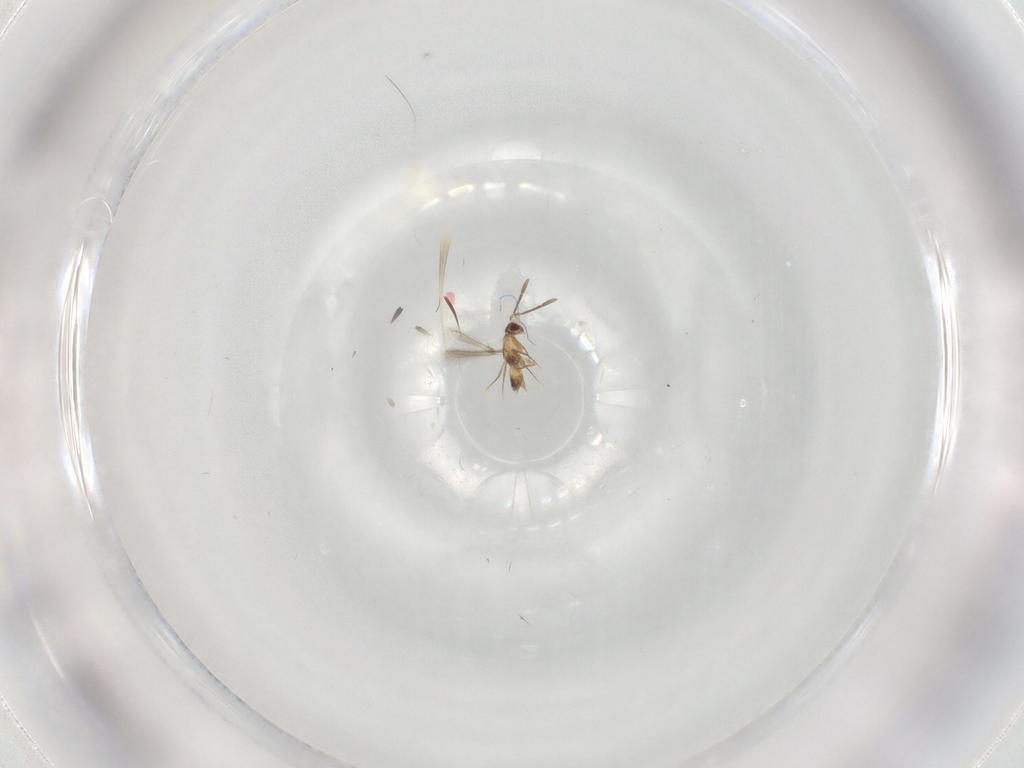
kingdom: Animalia
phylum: Arthropoda
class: Insecta
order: Hymenoptera
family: Mymaridae
